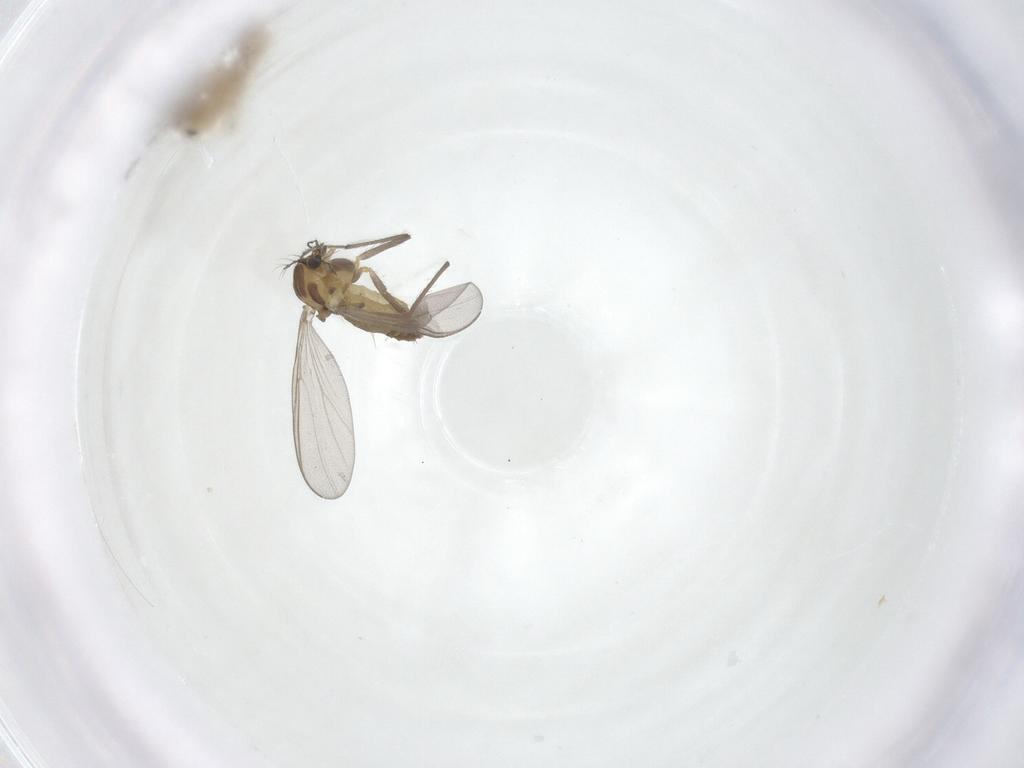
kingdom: Animalia
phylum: Arthropoda
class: Insecta
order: Diptera
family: Chironomidae
